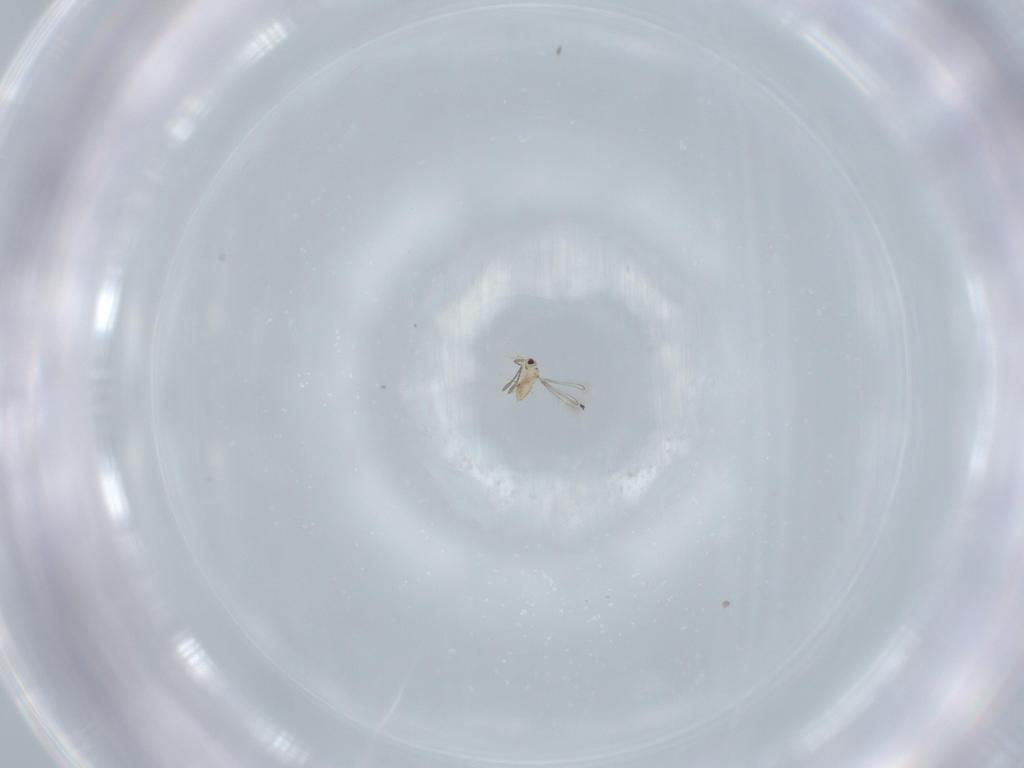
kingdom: Animalia
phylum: Arthropoda
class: Insecta
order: Hymenoptera
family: Mymaridae
